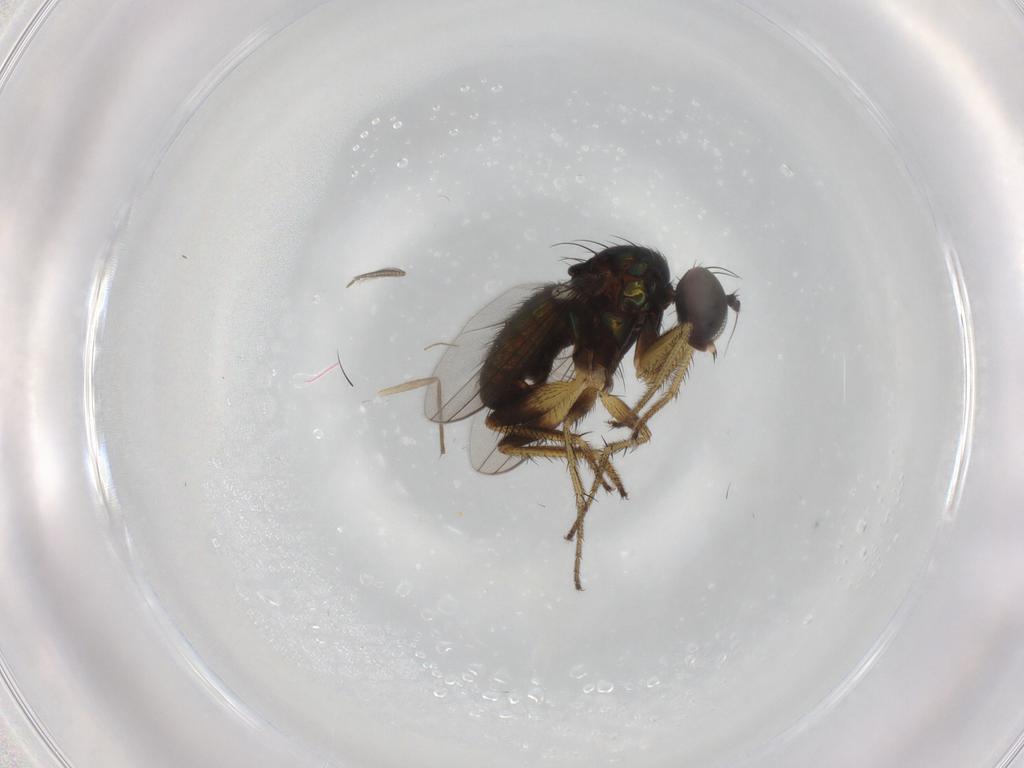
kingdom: Animalia
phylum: Arthropoda
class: Insecta
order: Diptera
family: Dolichopodidae
